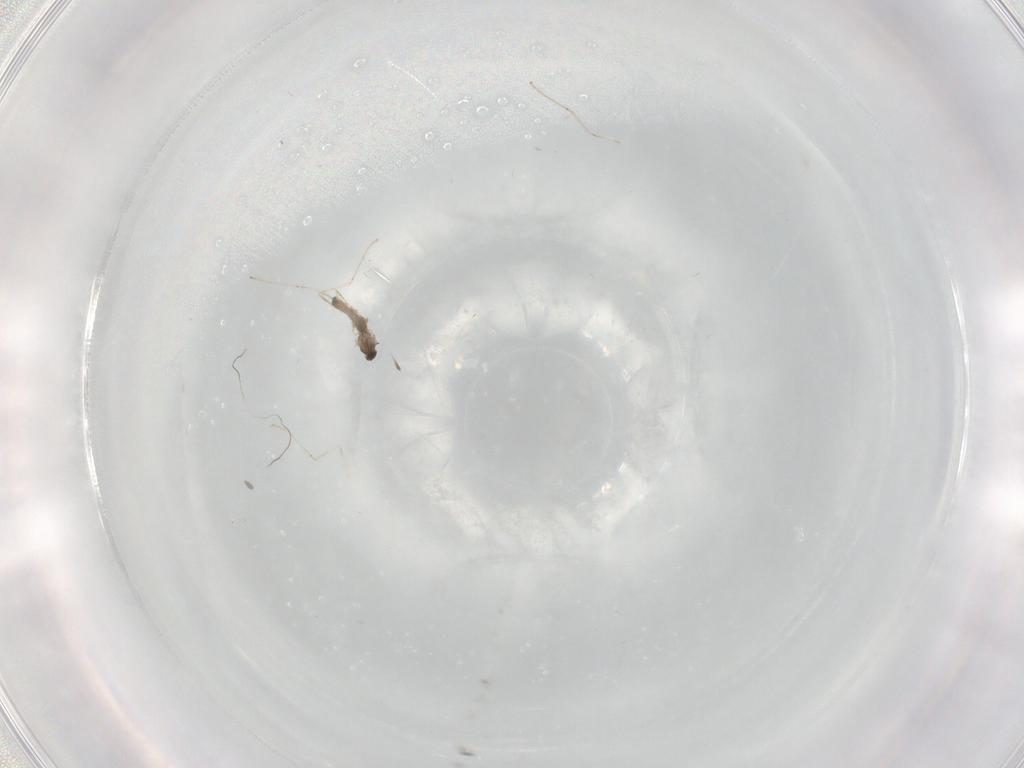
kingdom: Animalia
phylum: Arthropoda
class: Insecta
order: Diptera
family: Cecidomyiidae
